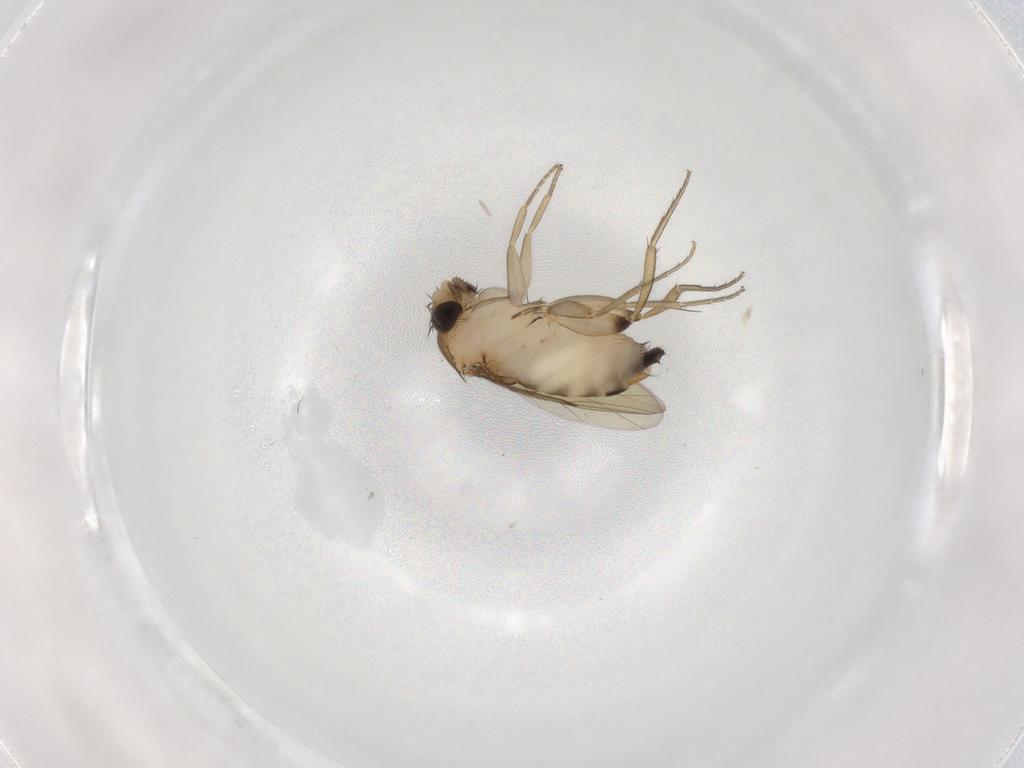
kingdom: Animalia
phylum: Arthropoda
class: Insecta
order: Diptera
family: Phoridae
